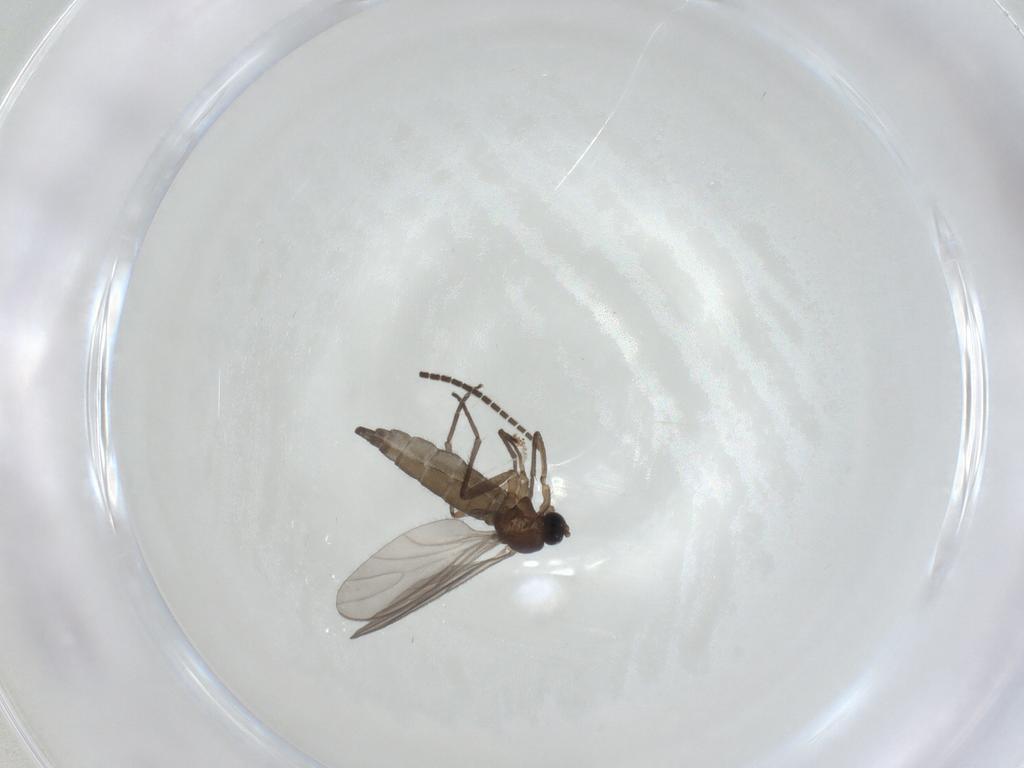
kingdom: Animalia
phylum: Arthropoda
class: Insecta
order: Diptera
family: Sciaridae
